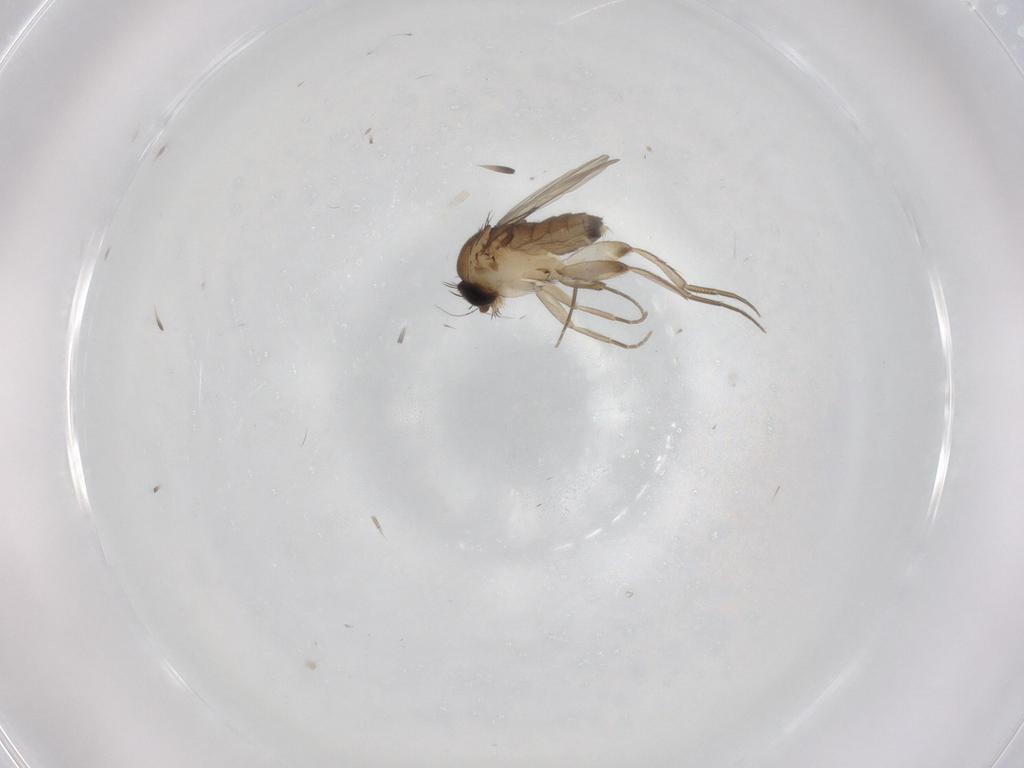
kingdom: Animalia
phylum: Arthropoda
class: Insecta
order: Diptera
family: Phoridae
